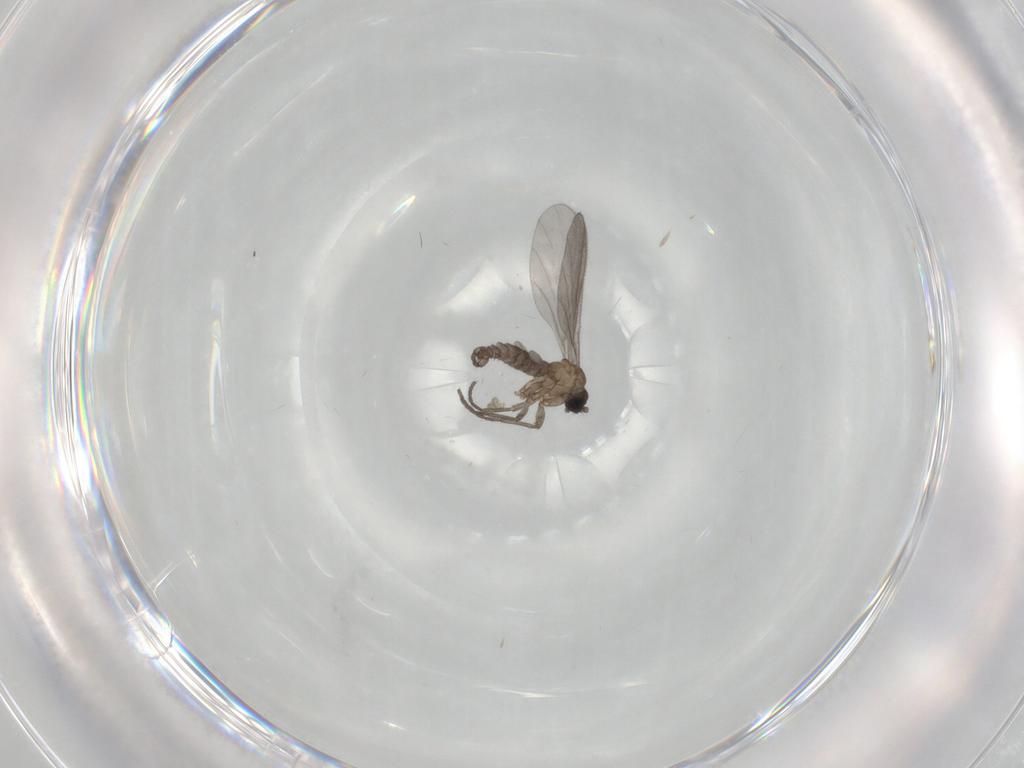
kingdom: Animalia
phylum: Arthropoda
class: Insecta
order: Diptera
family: Sciaridae
